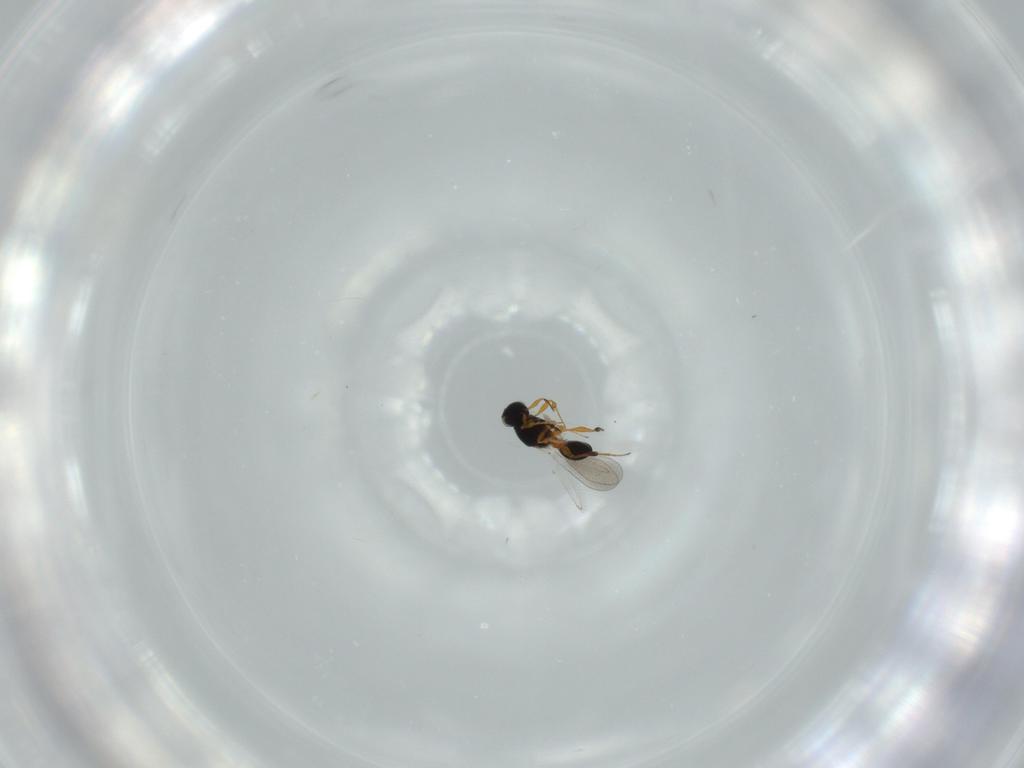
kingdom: Animalia
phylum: Arthropoda
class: Insecta
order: Hymenoptera
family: Platygastridae
